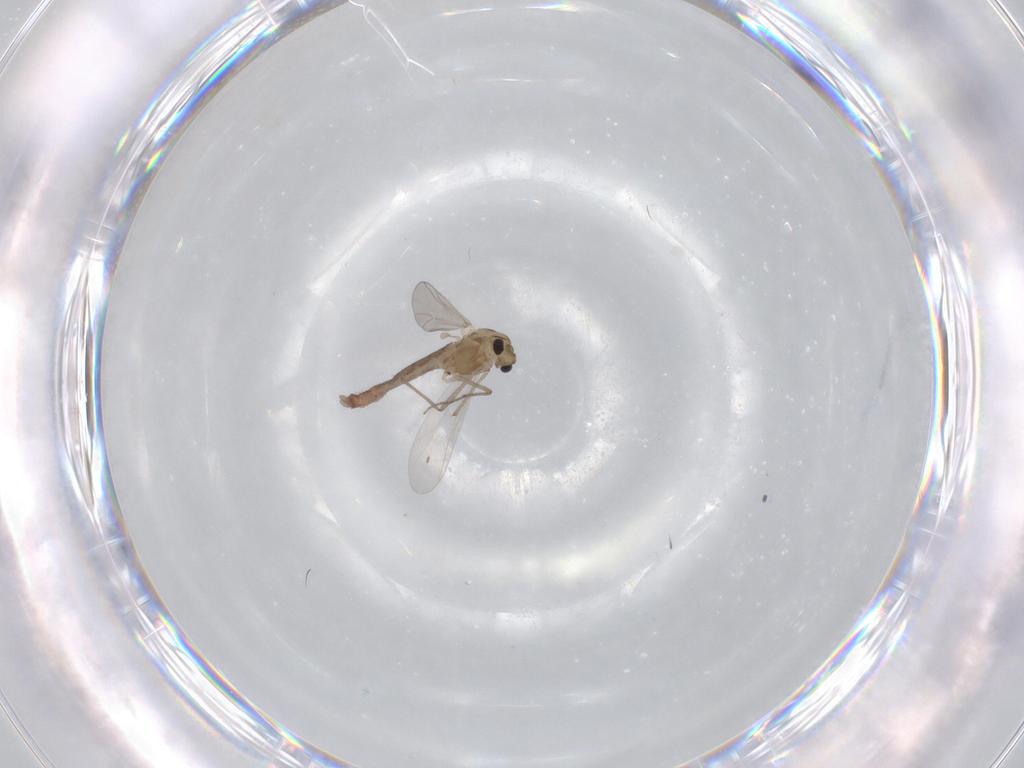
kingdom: Animalia
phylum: Arthropoda
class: Insecta
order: Diptera
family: Chironomidae
